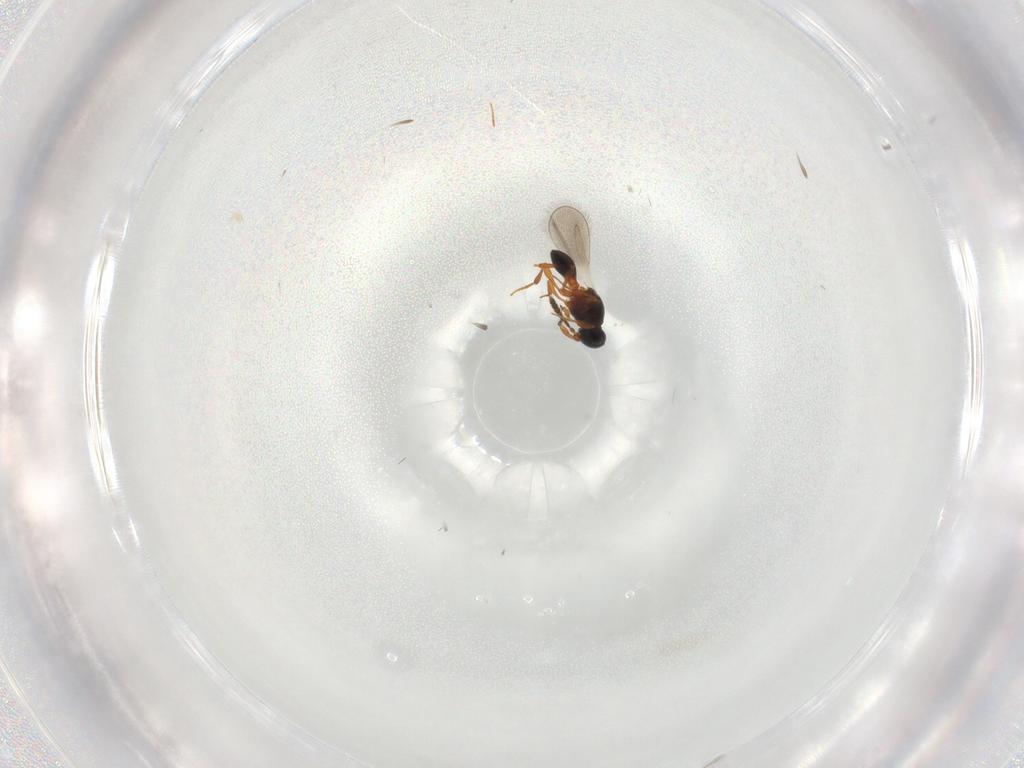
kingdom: Animalia
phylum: Arthropoda
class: Insecta
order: Hymenoptera
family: Platygastridae
